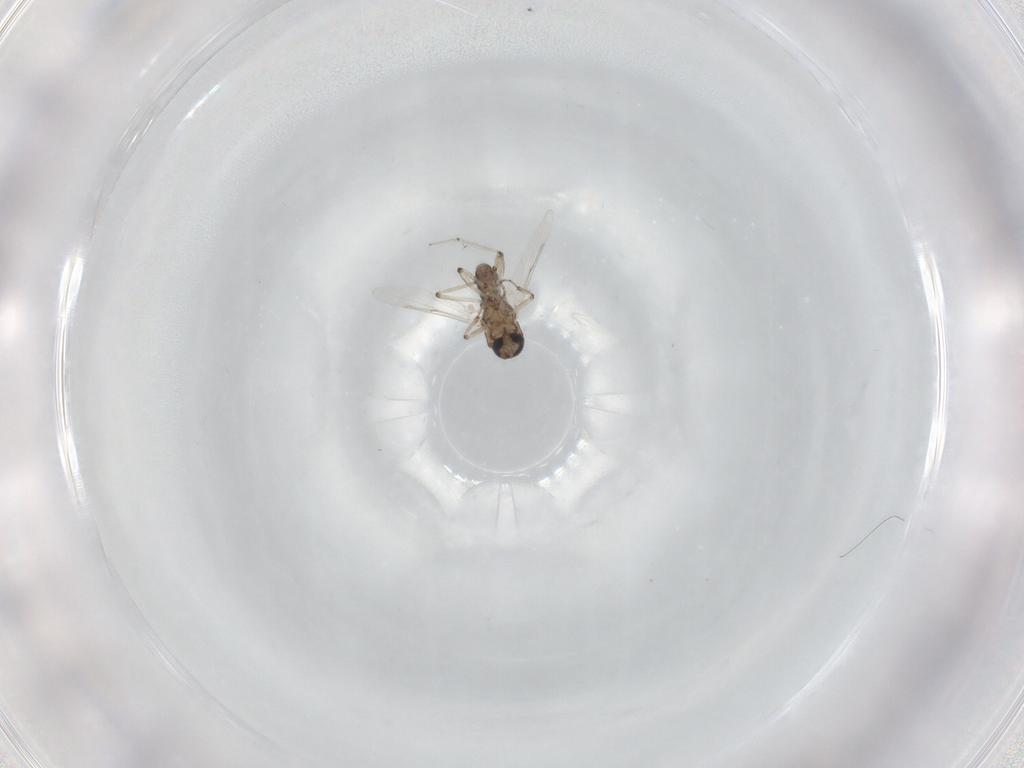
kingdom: Animalia
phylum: Arthropoda
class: Insecta
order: Diptera
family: Ceratopogonidae
